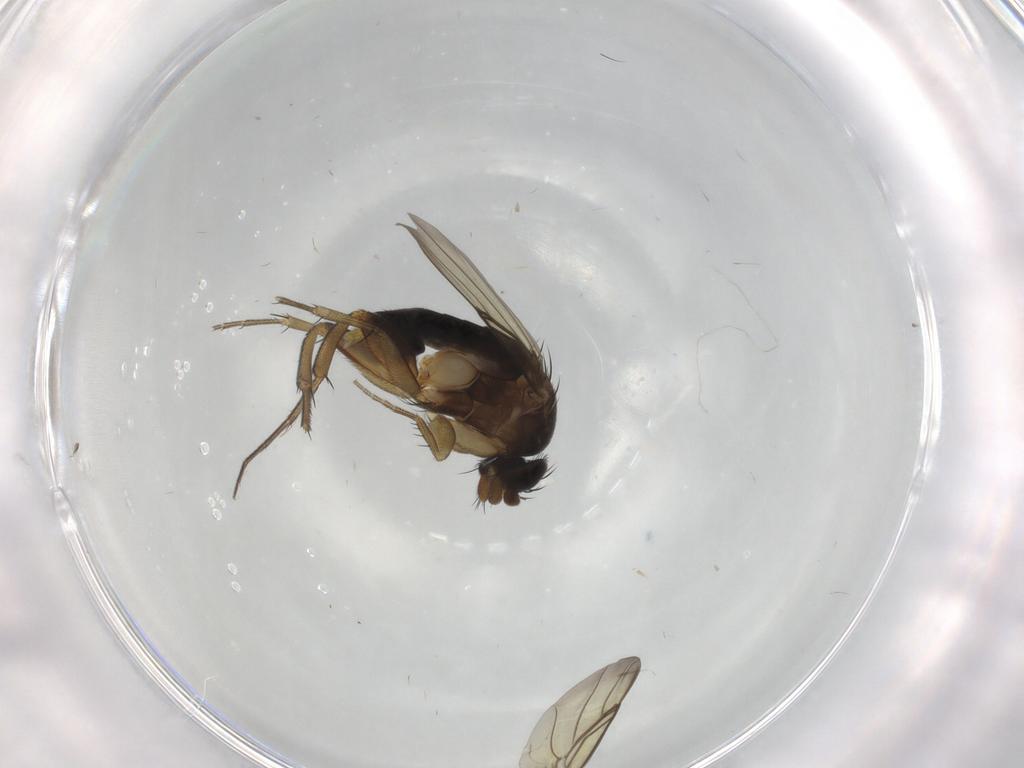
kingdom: Animalia
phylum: Arthropoda
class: Insecta
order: Diptera
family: Phoridae
